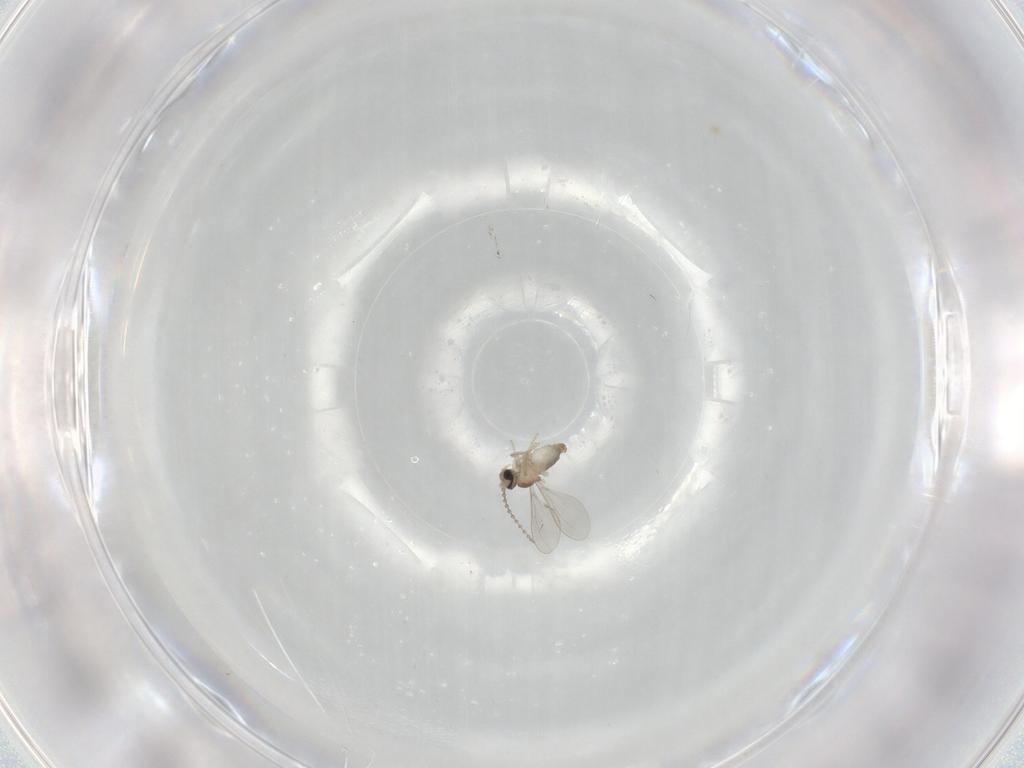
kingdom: Animalia
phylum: Arthropoda
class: Insecta
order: Diptera
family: Cecidomyiidae
